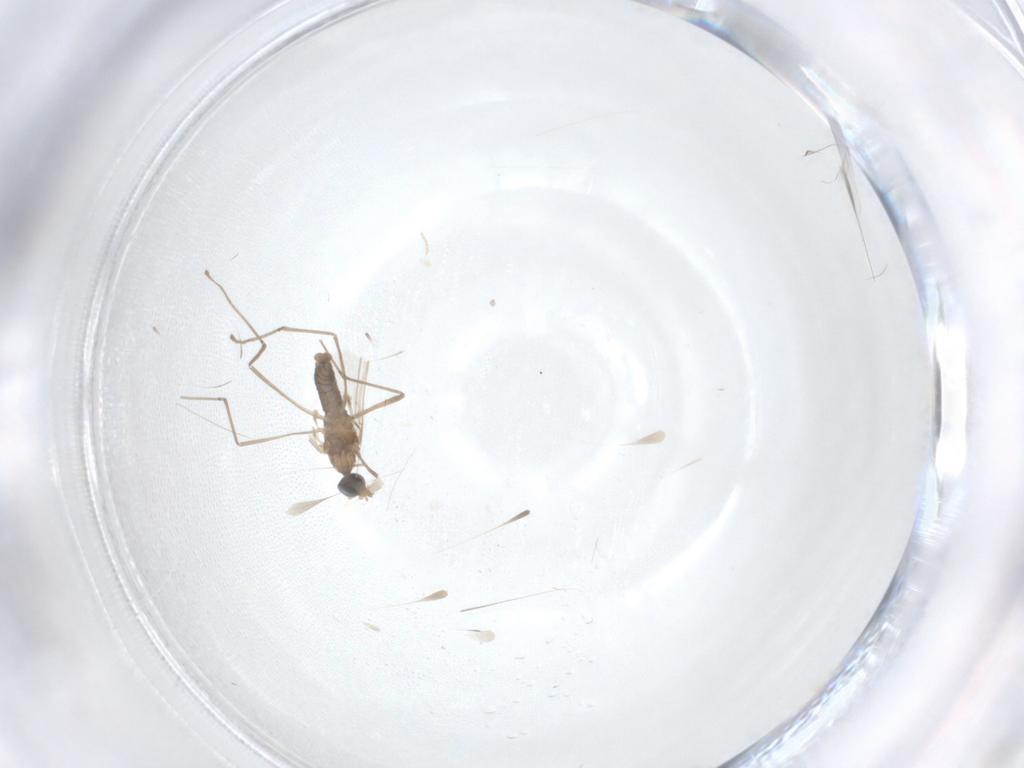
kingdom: Animalia
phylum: Arthropoda
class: Insecta
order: Diptera
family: Cecidomyiidae
